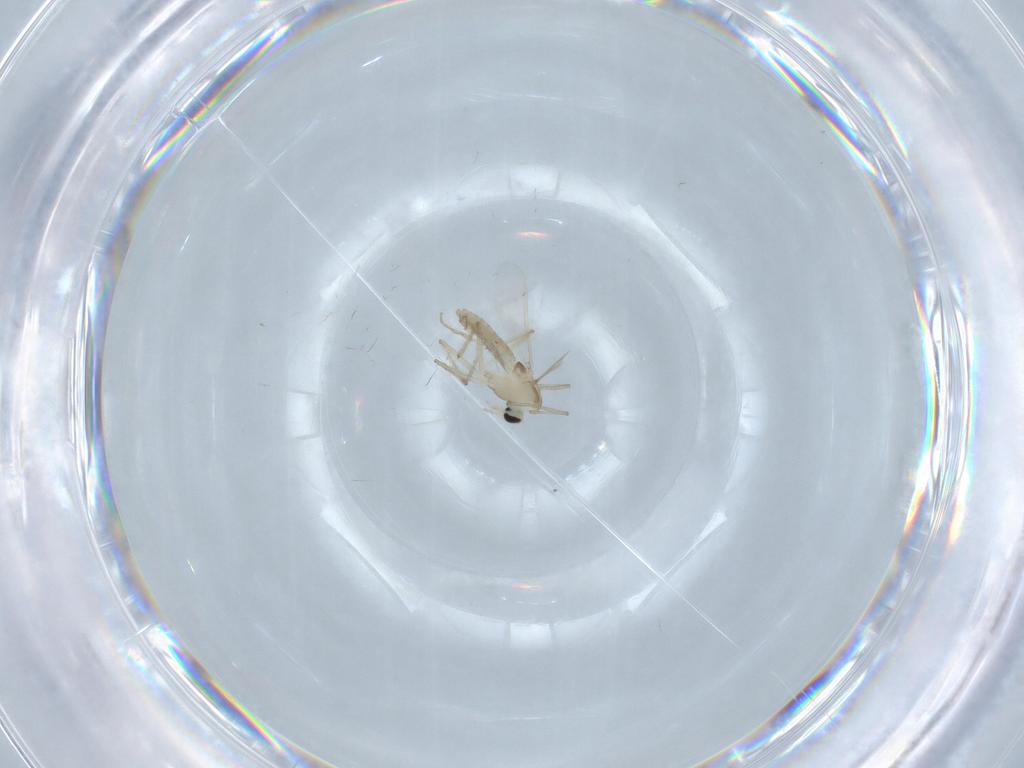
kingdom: Animalia
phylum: Arthropoda
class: Insecta
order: Diptera
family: Chironomidae
